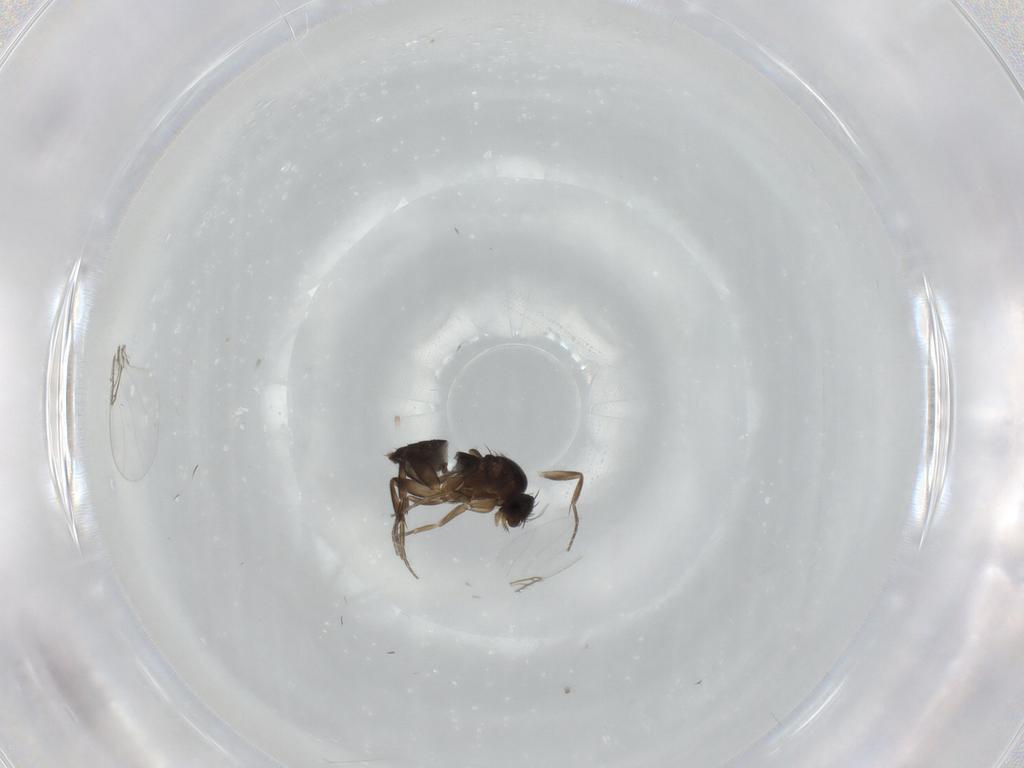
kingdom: Animalia
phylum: Arthropoda
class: Insecta
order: Diptera
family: Phoridae
